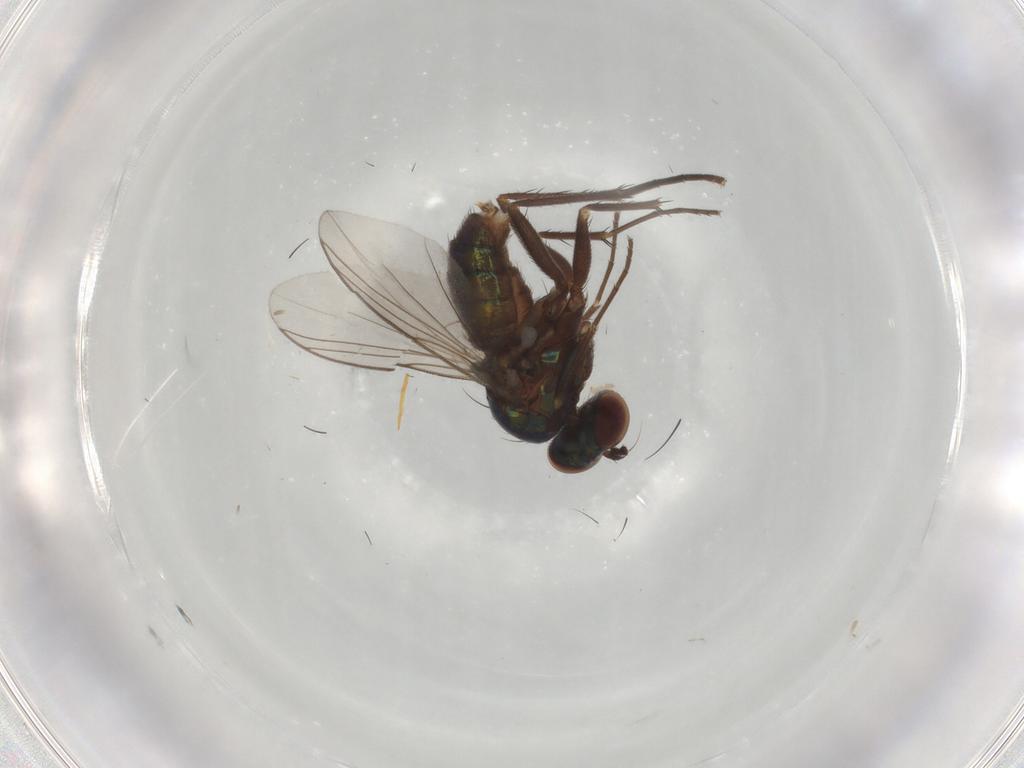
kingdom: Animalia
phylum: Arthropoda
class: Insecta
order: Diptera
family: Dolichopodidae
